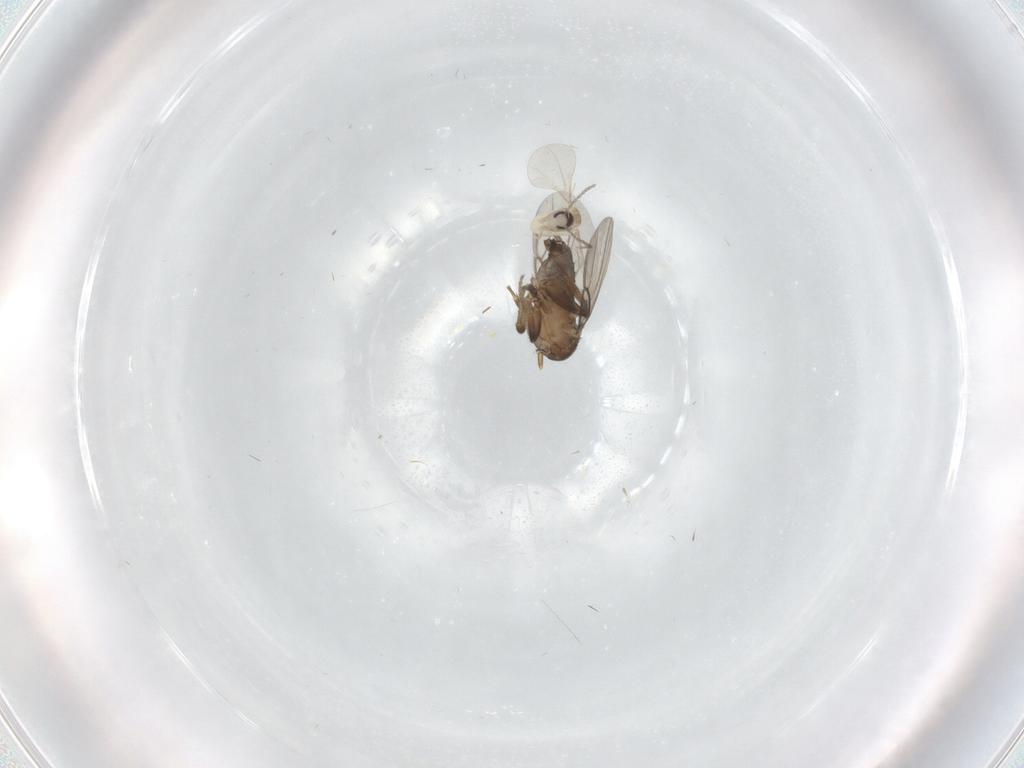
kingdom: Animalia
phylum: Arthropoda
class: Insecta
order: Diptera
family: Phoridae
